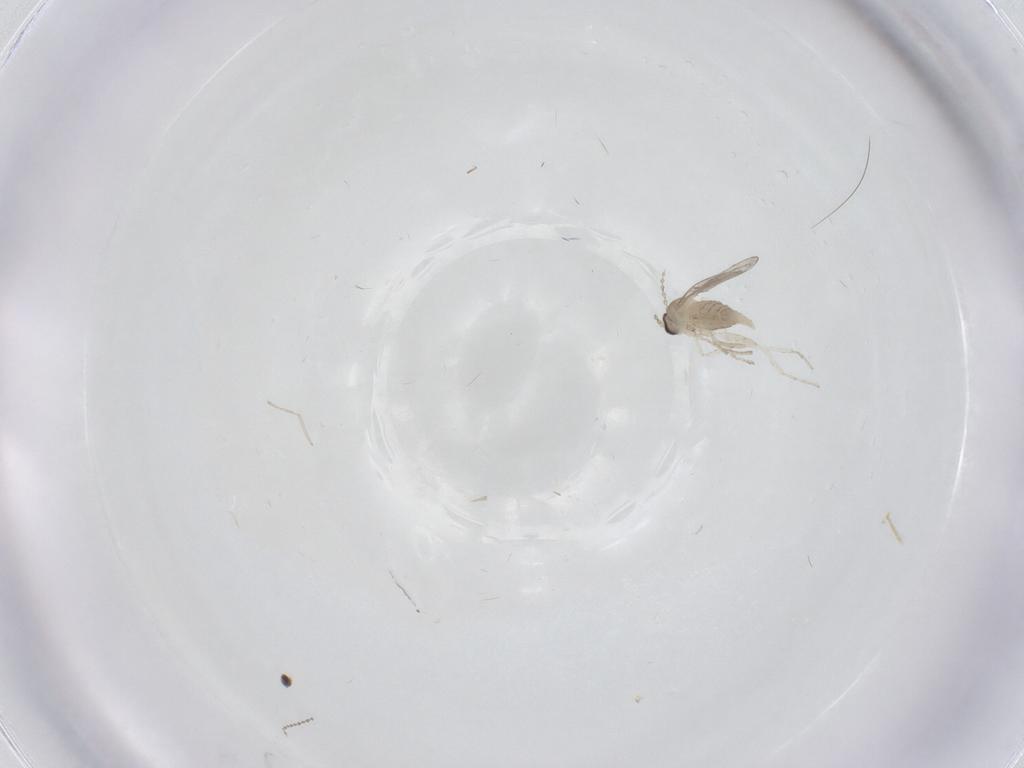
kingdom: Animalia
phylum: Arthropoda
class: Insecta
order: Diptera
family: Cecidomyiidae
